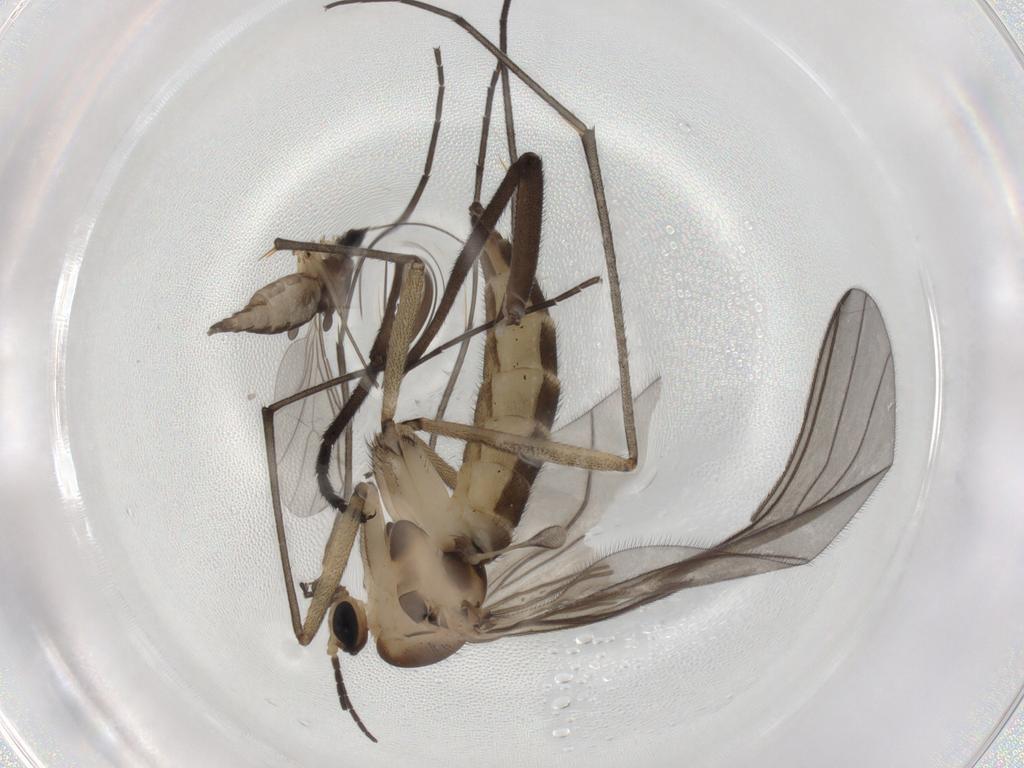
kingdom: Animalia
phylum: Arthropoda
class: Insecta
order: Diptera
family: Sciaridae
